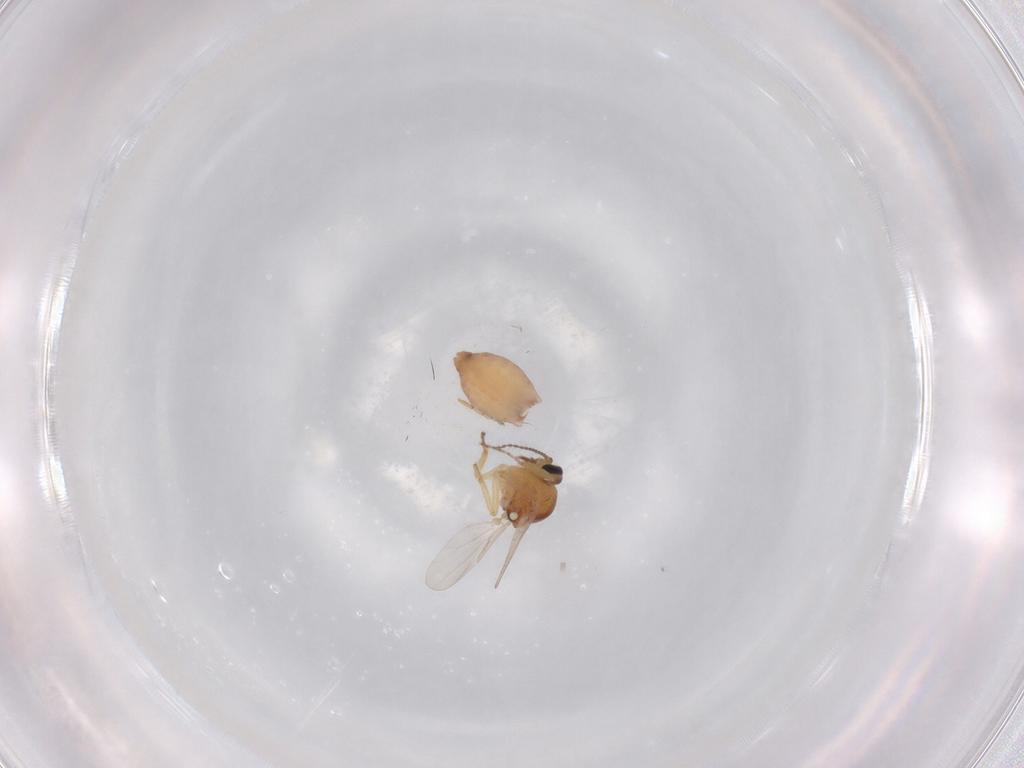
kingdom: Animalia
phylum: Arthropoda
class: Insecta
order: Diptera
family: Ceratopogonidae
